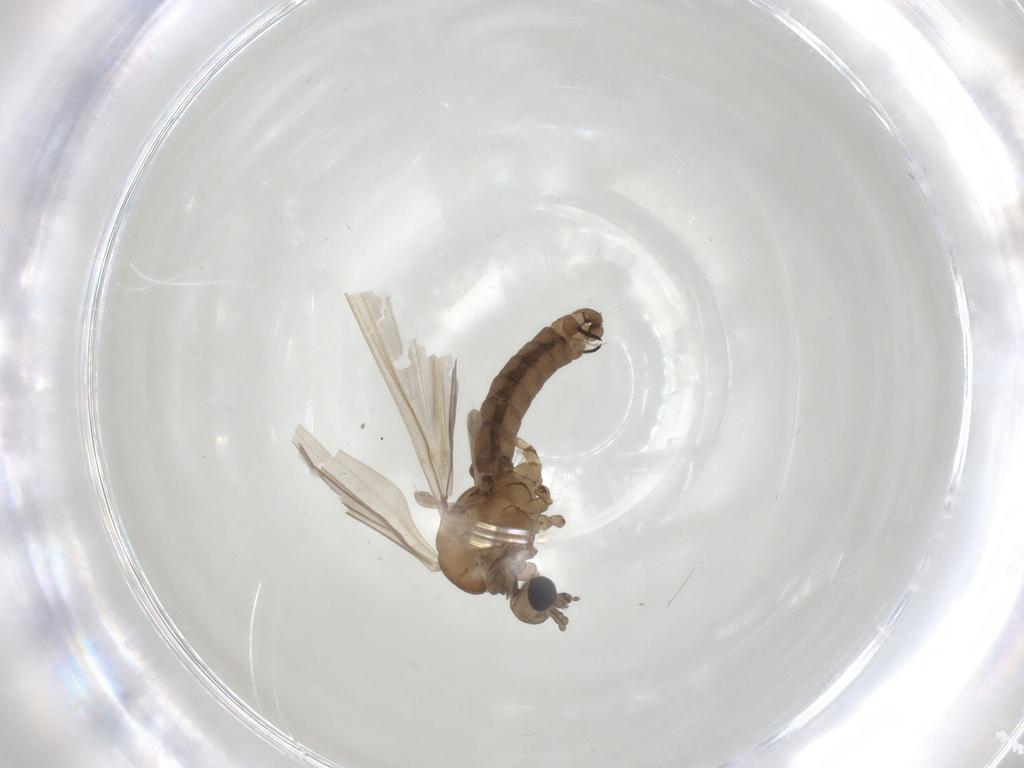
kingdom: Animalia
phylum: Arthropoda
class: Insecta
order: Diptera
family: Limoniidae
